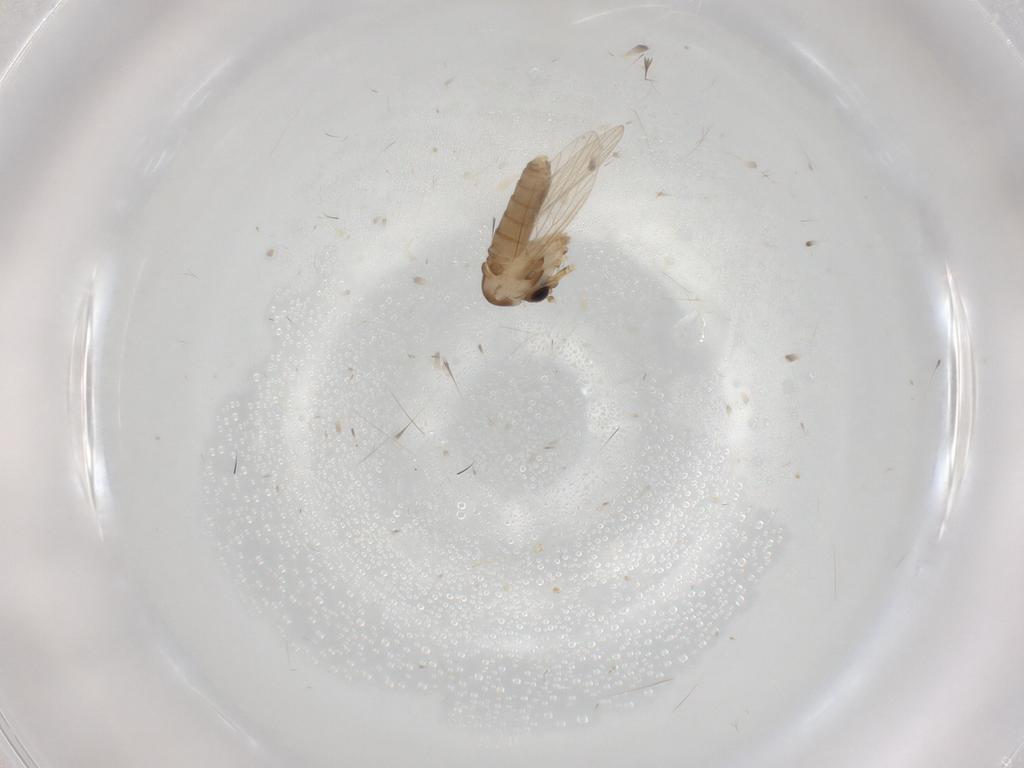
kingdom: Animalia
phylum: Arthropoda
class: Insecta
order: Diptera
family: Psychodidae
